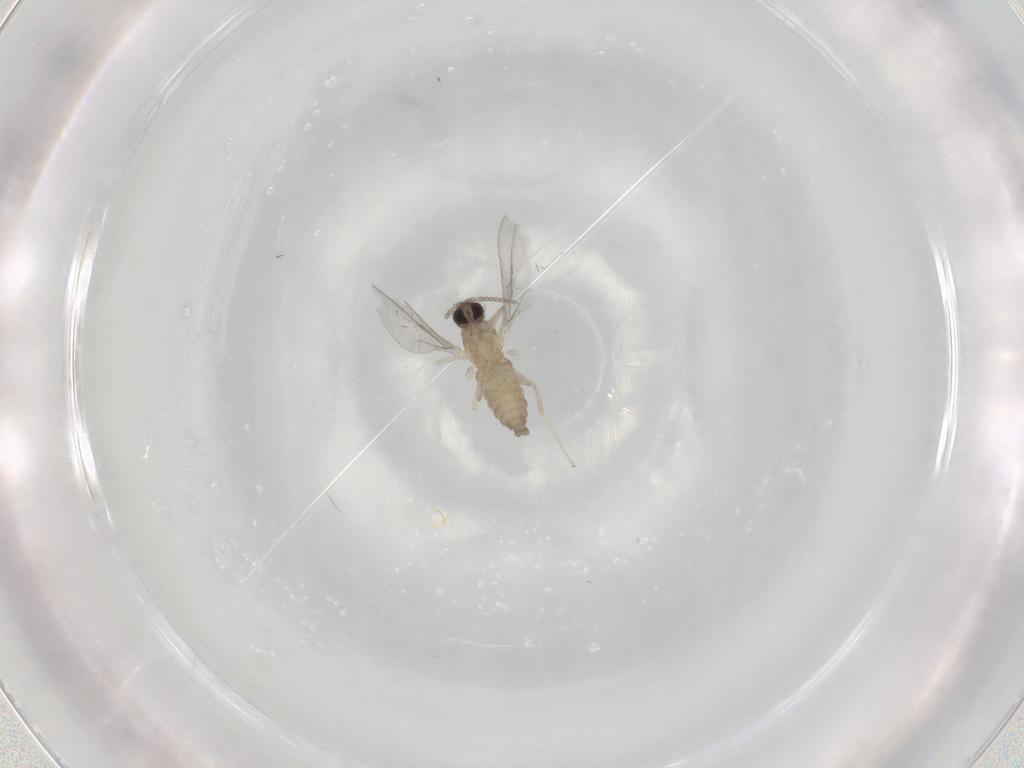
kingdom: Animalia
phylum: Arthropoda
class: Insecta
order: Diptera
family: Cecidomyiidae
